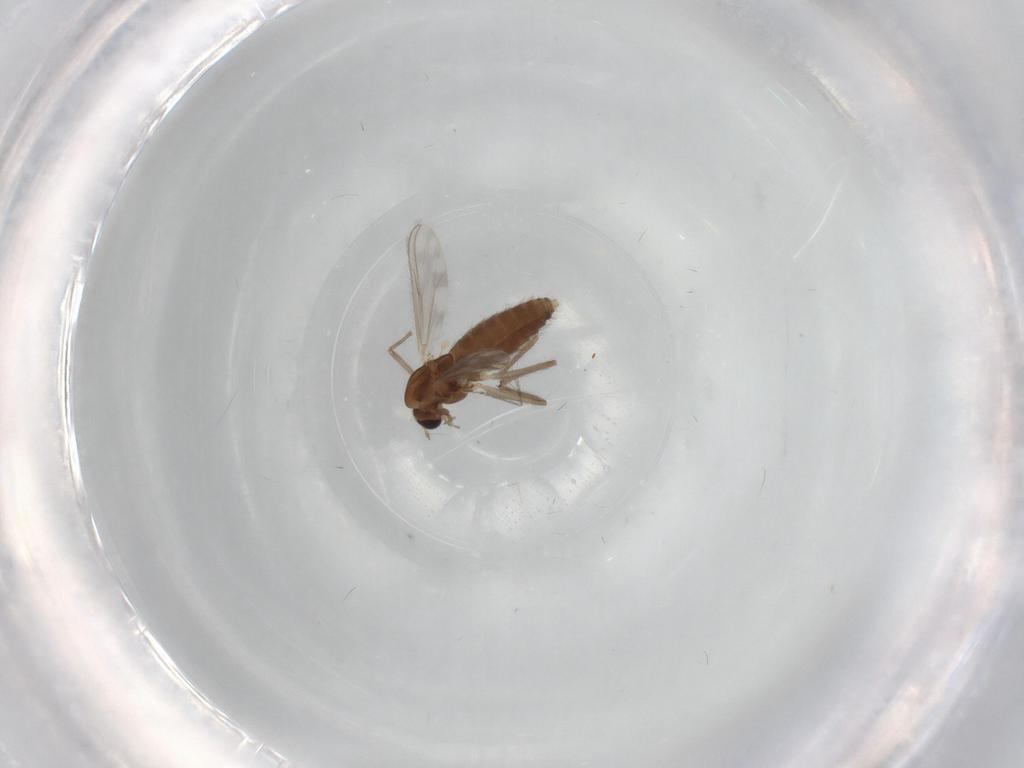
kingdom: Animalia
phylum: Arthropoda
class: Insecta
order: Diptera
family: Chironomidae
